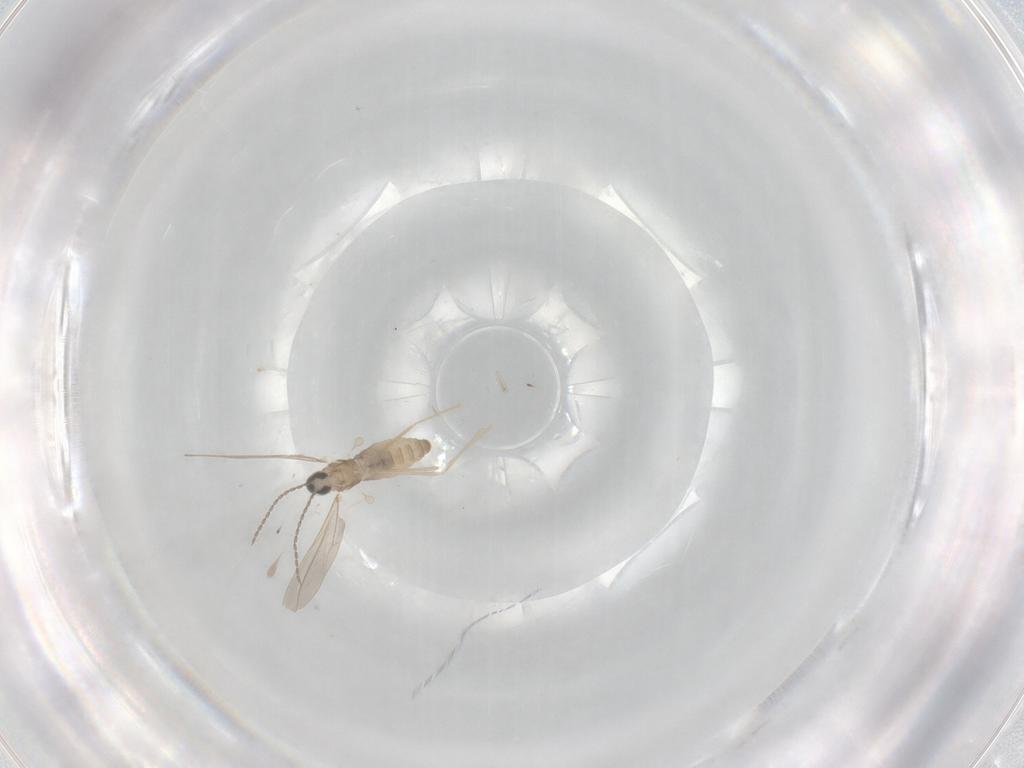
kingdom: Animalia
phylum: Arthropoda
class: Insecta
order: Diptera
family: Cecidomyiidae
